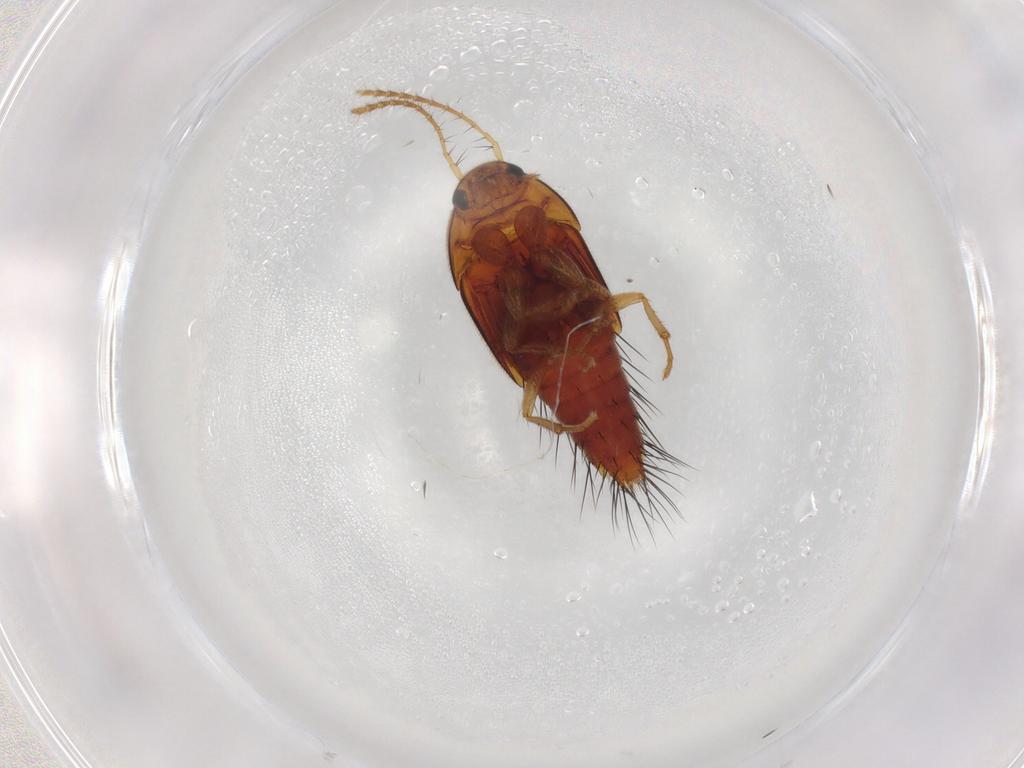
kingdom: Animalia
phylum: Arthropoda
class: Insecta
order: Coleoptera
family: Staphylinidae
